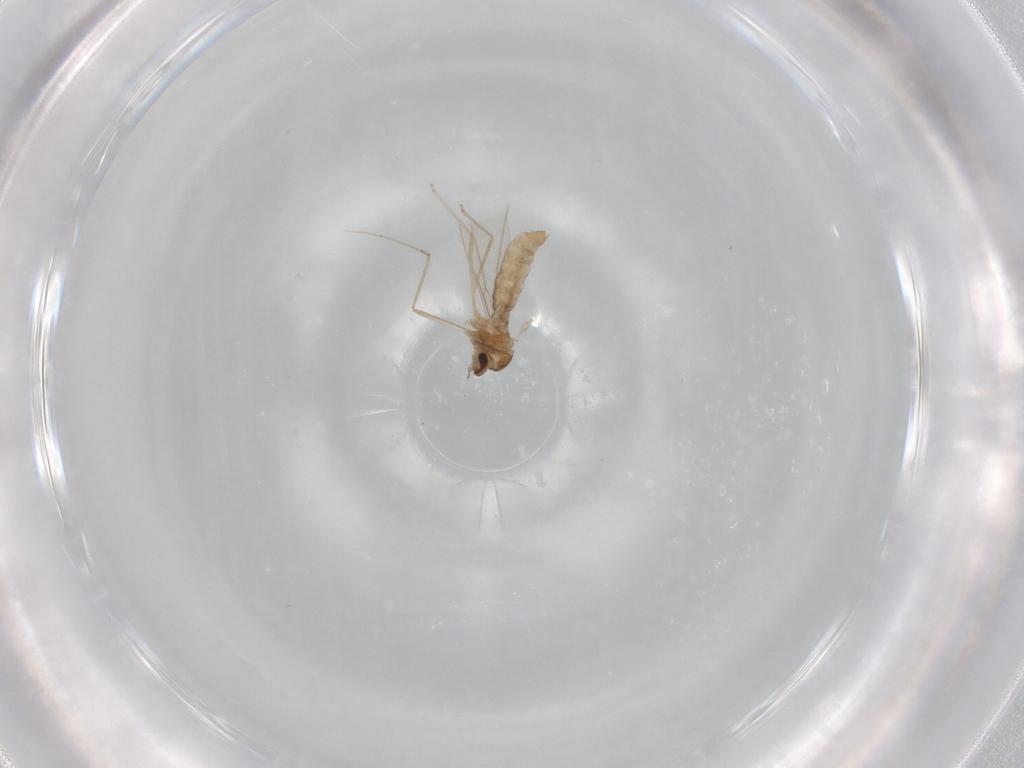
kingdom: Animalia
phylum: Arthropoda
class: Insecta
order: Diptera
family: Cecidomyiidae
